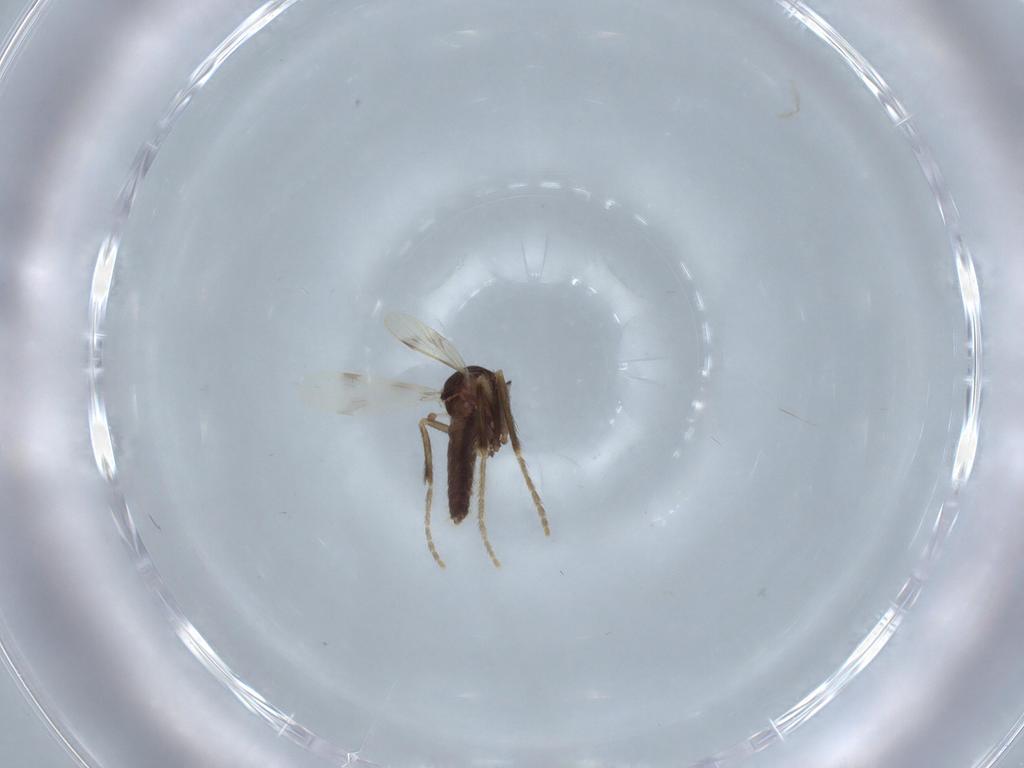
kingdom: Animalia
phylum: Arthropoda
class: Insecta
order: Diptera
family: Corethrellidae
